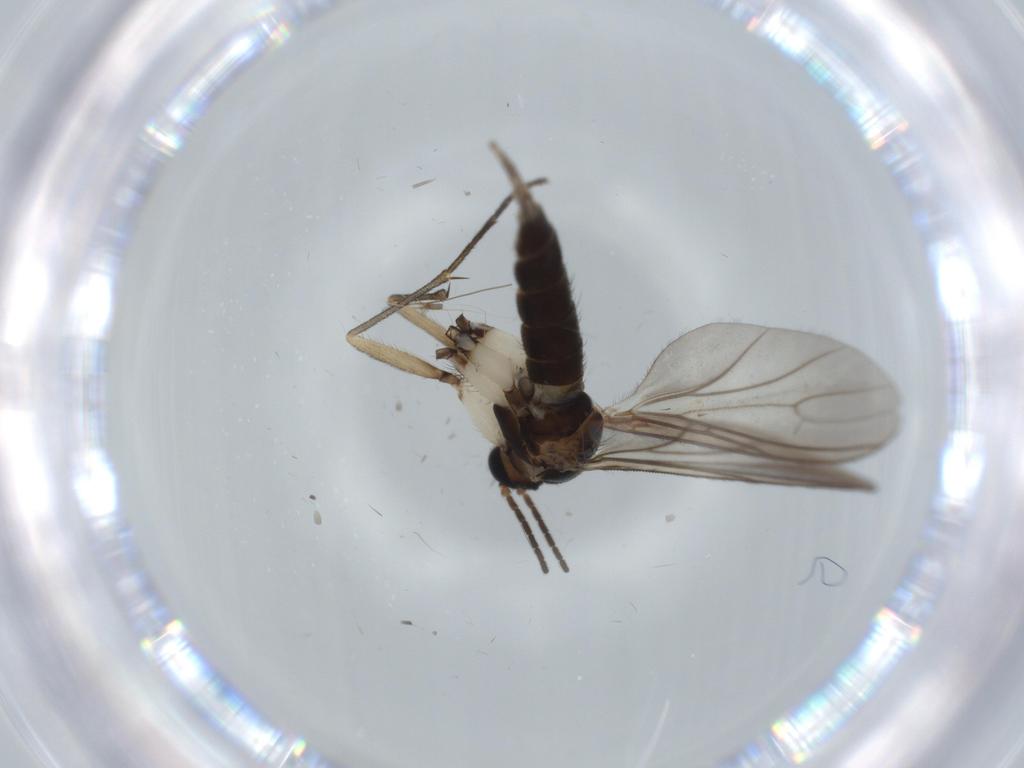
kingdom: Animalia
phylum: Arthropoda
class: Insecta
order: Diptera
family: Sciaridae
